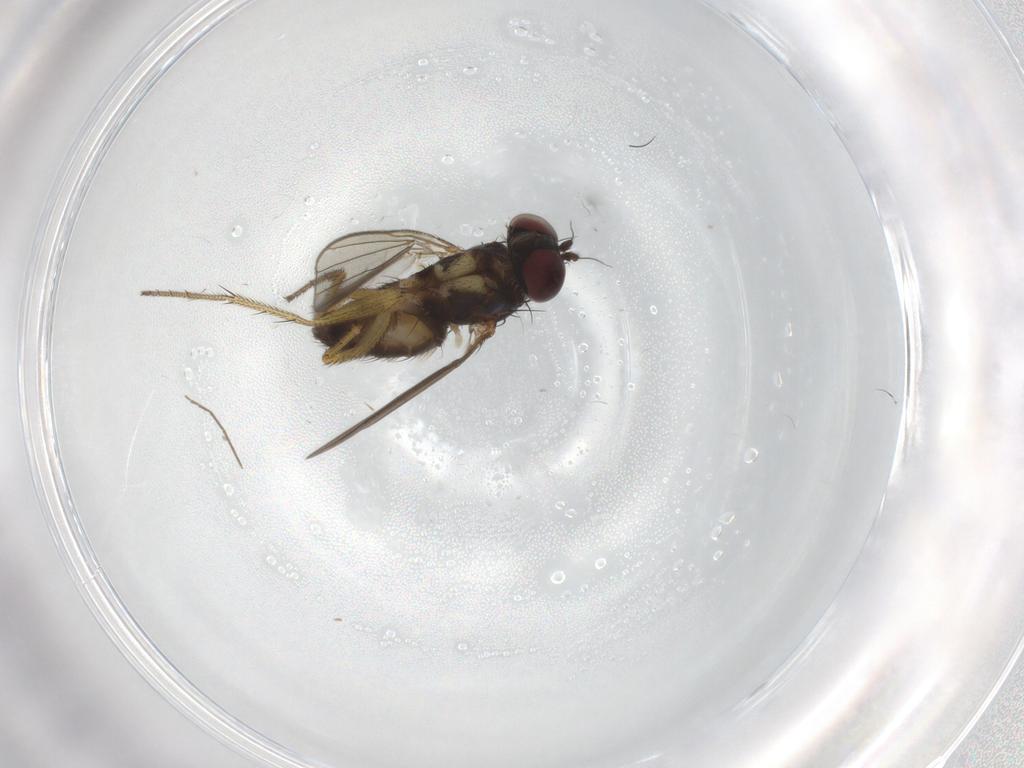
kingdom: Animalia
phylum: Arthropoda
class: Insecta
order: Diptera
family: Dolichopodidae
